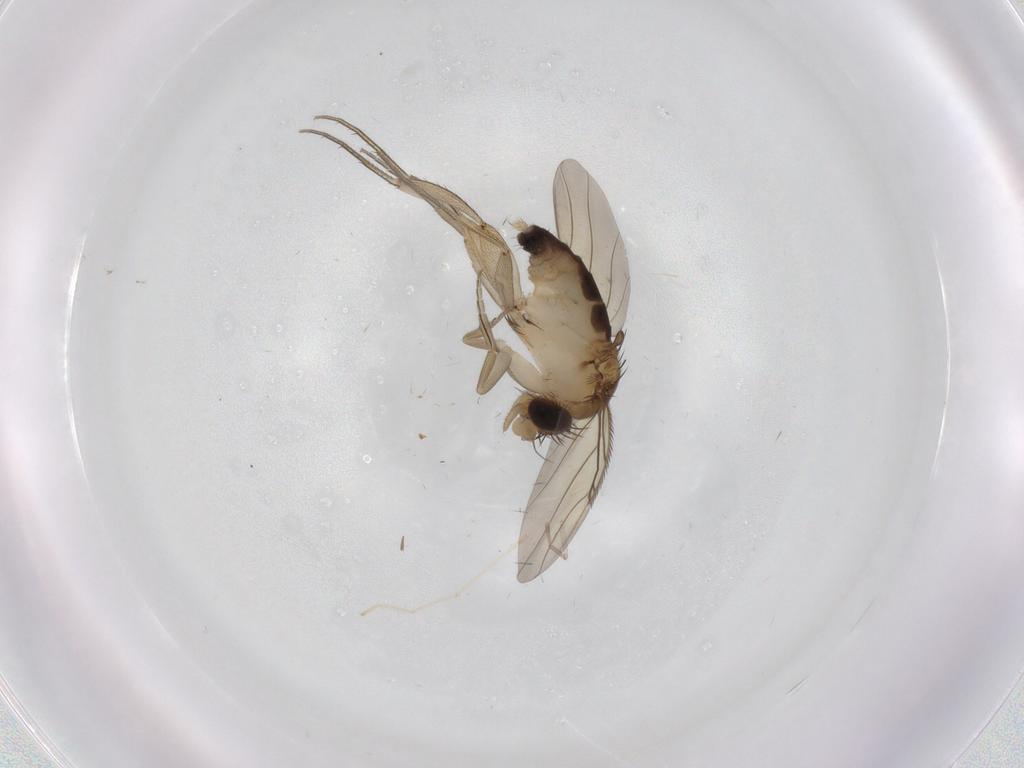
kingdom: Animalia
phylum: Arthropoda
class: Insecta
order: Diptera
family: Phoridae
